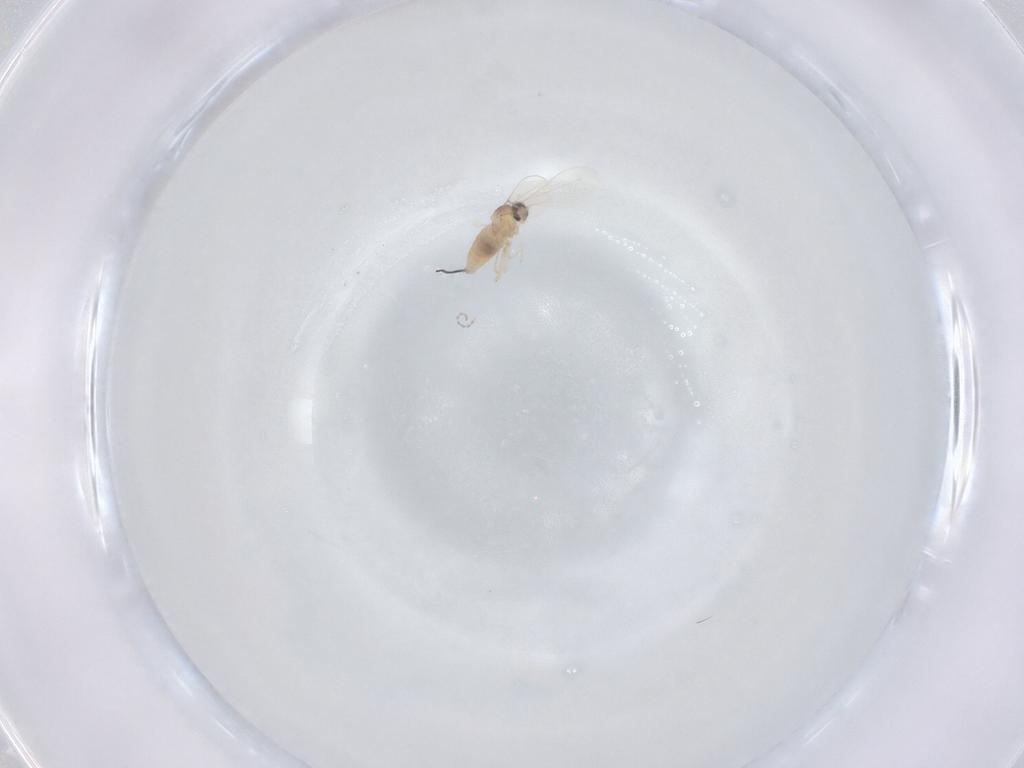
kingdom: Animalia
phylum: Arthropoda
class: Insecta
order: Diptera
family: Cecidomyiidae
